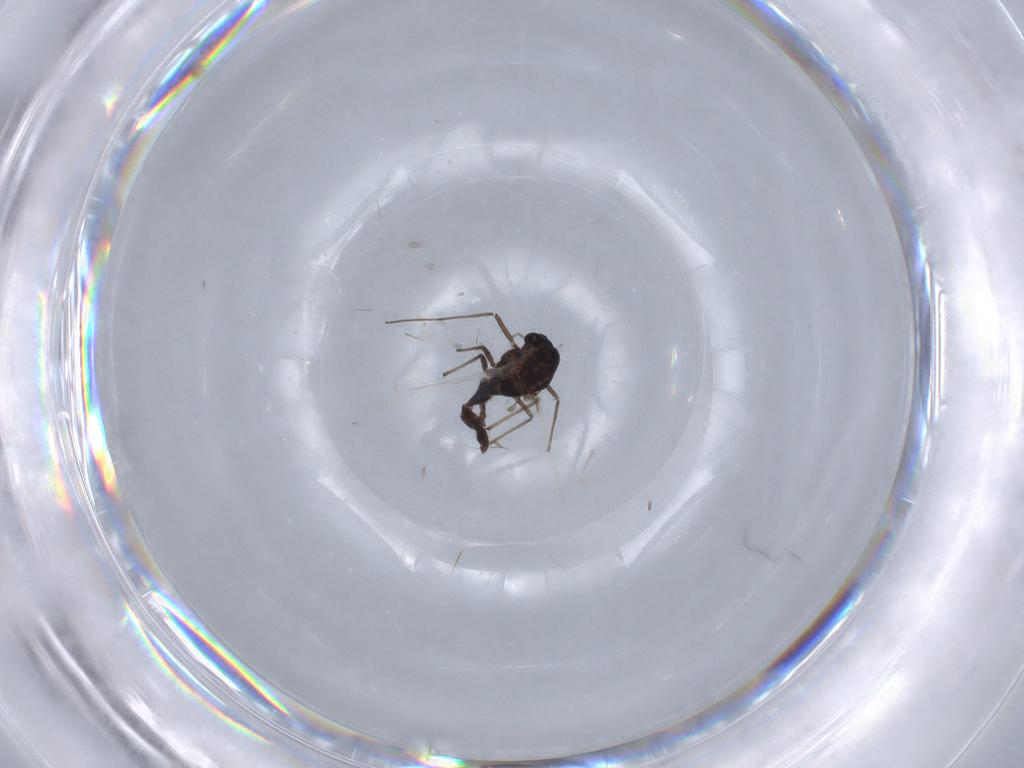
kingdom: Animalia
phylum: Arthropoda
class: Insecta
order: Diptera
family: Chironomidae
